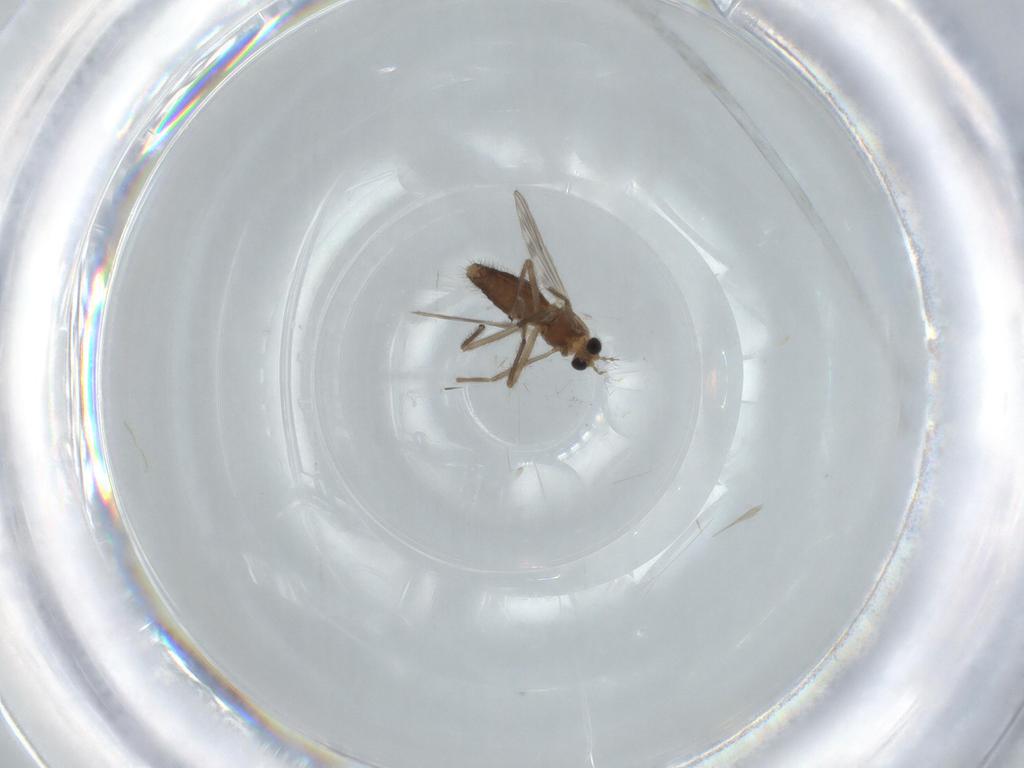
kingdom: Animalia
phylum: Arthropoda
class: Insecta
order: Diptera
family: Chironomidae
